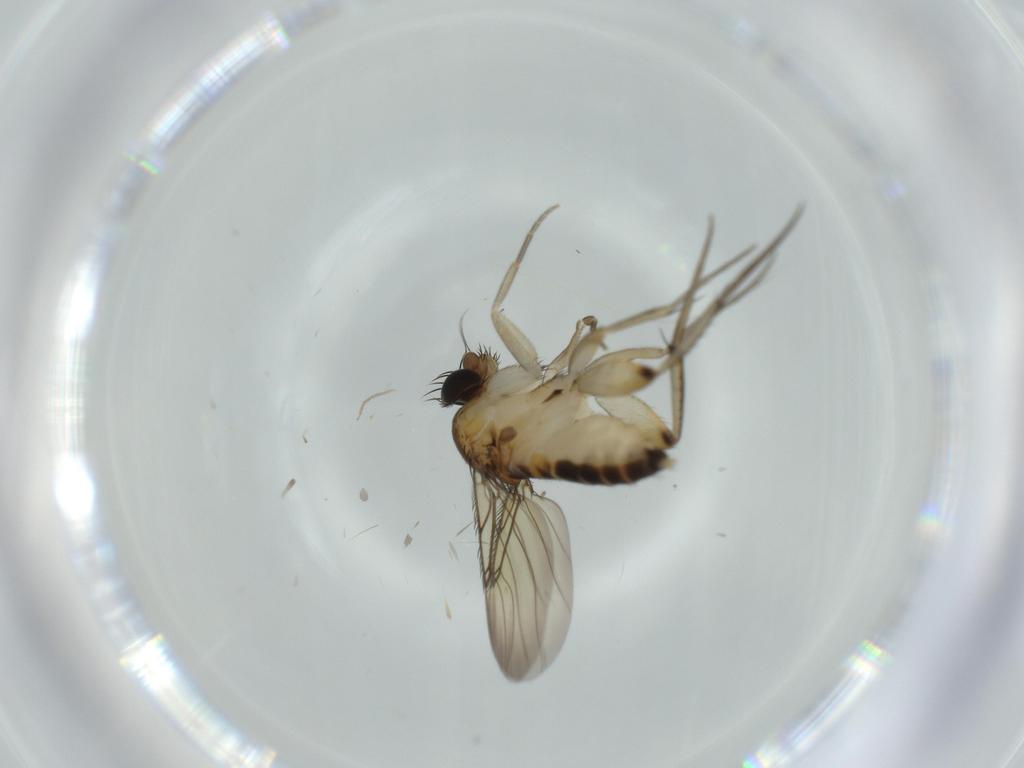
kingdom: Animalia
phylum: Arthropoda
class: Insecta
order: Diptera
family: Phoridae
